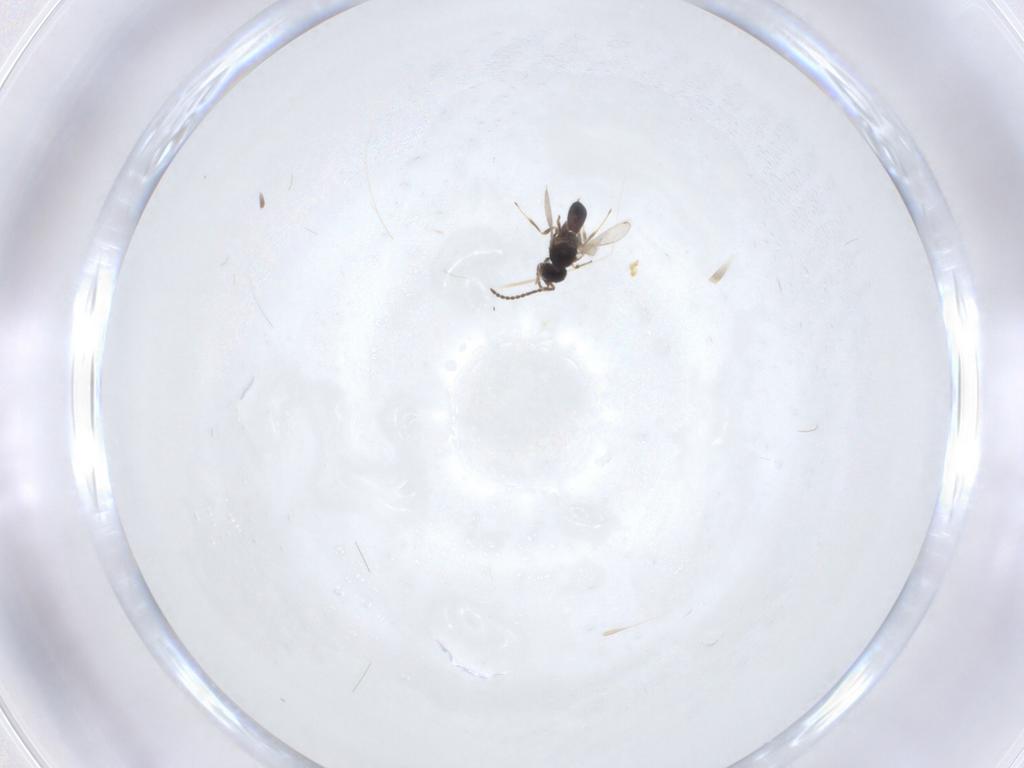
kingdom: Animalia
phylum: Arthropoda
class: Insecta
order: Hymenoptera
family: Scelionidae
